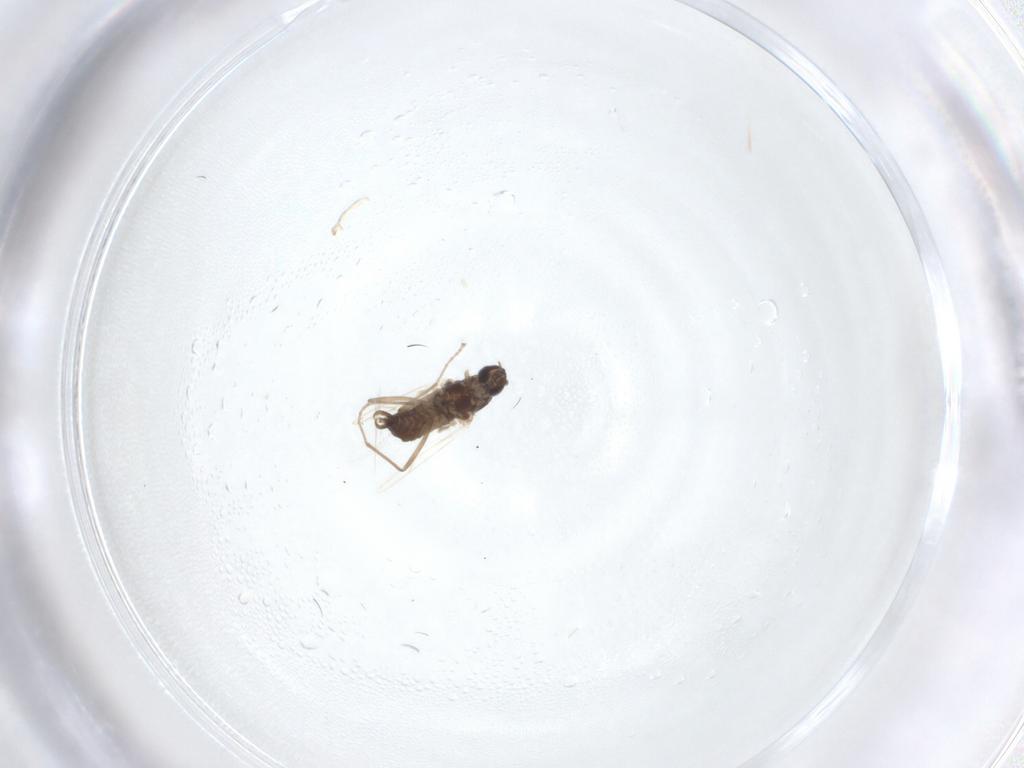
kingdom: Animalia
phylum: Arthropoda
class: Insecta
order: Diptera
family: Cecidomyiidae
